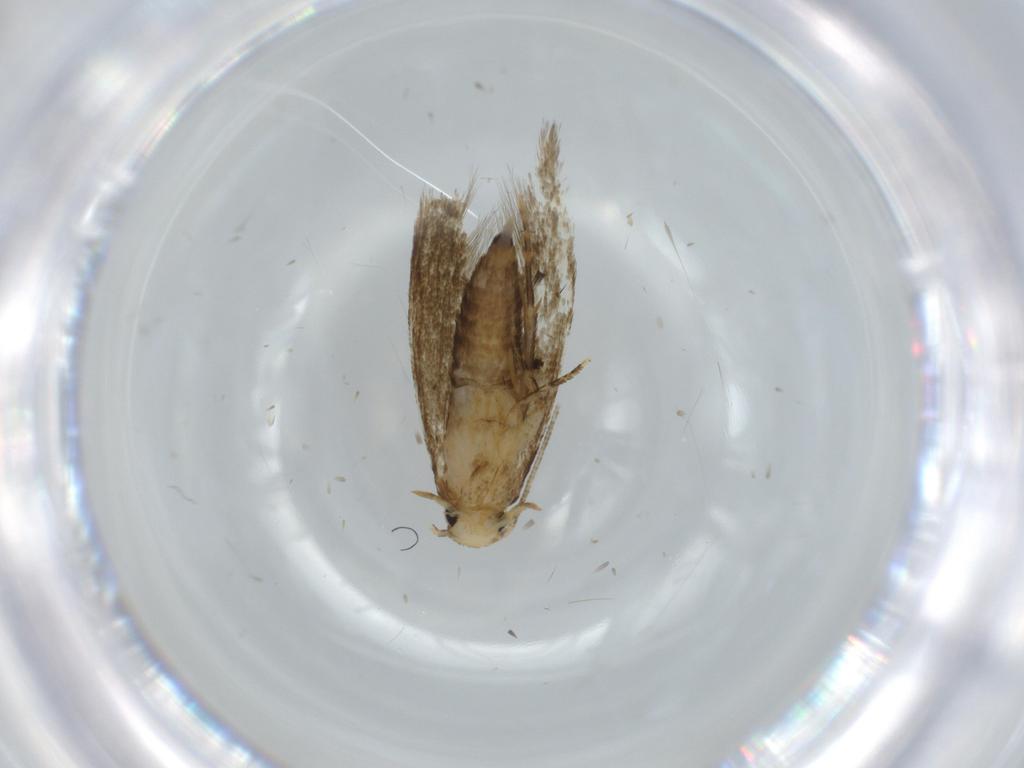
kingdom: Animalia
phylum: Arthropoda
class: Insecta
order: Lepidoptera
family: Tineidae
